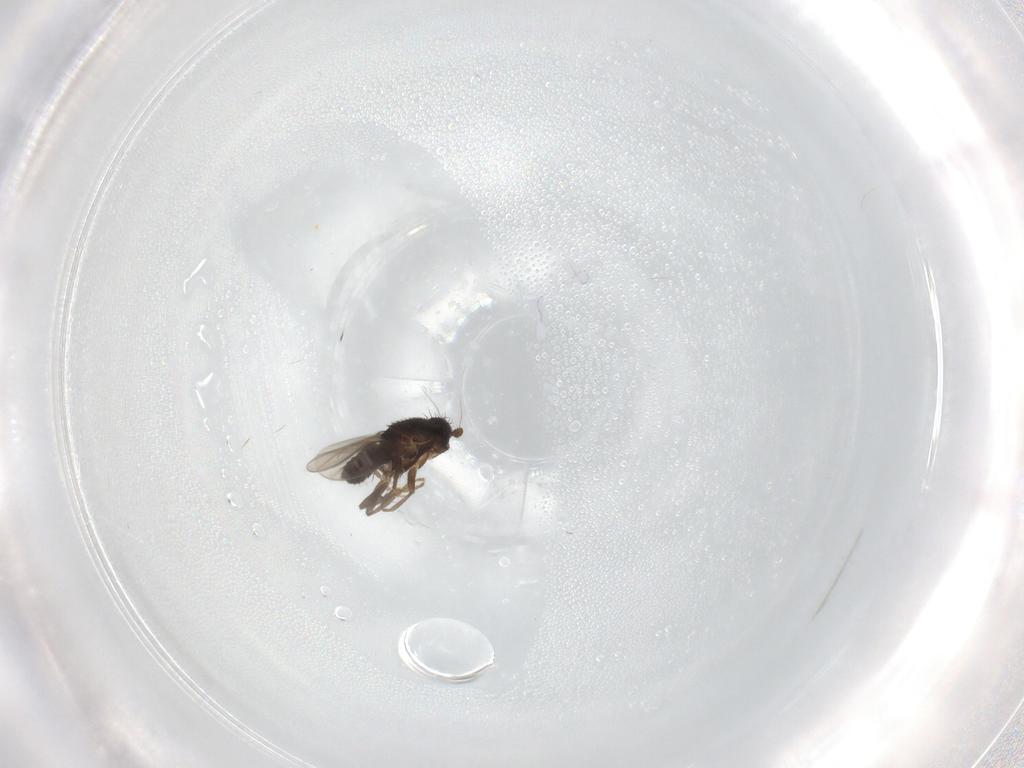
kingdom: Animalia
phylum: Arthropoda
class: Insecta
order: Diptera
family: Sphaeroceridae
